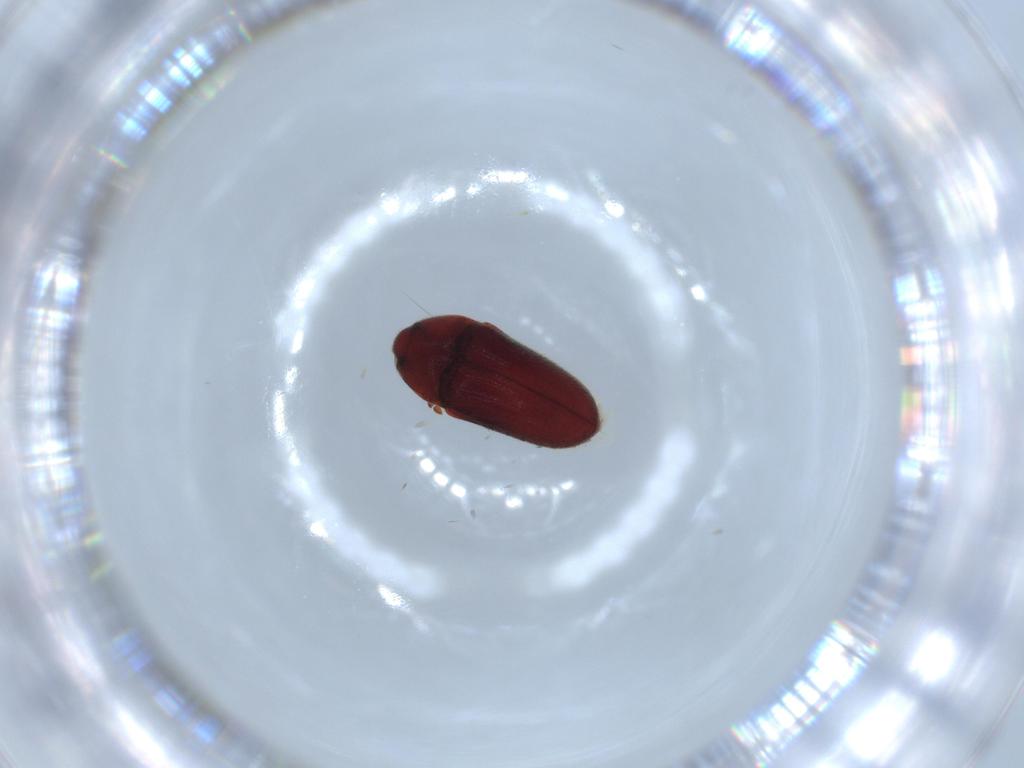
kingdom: Animalia
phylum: Arthropoda
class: Insecta
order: Coleoptera
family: Throscidae
